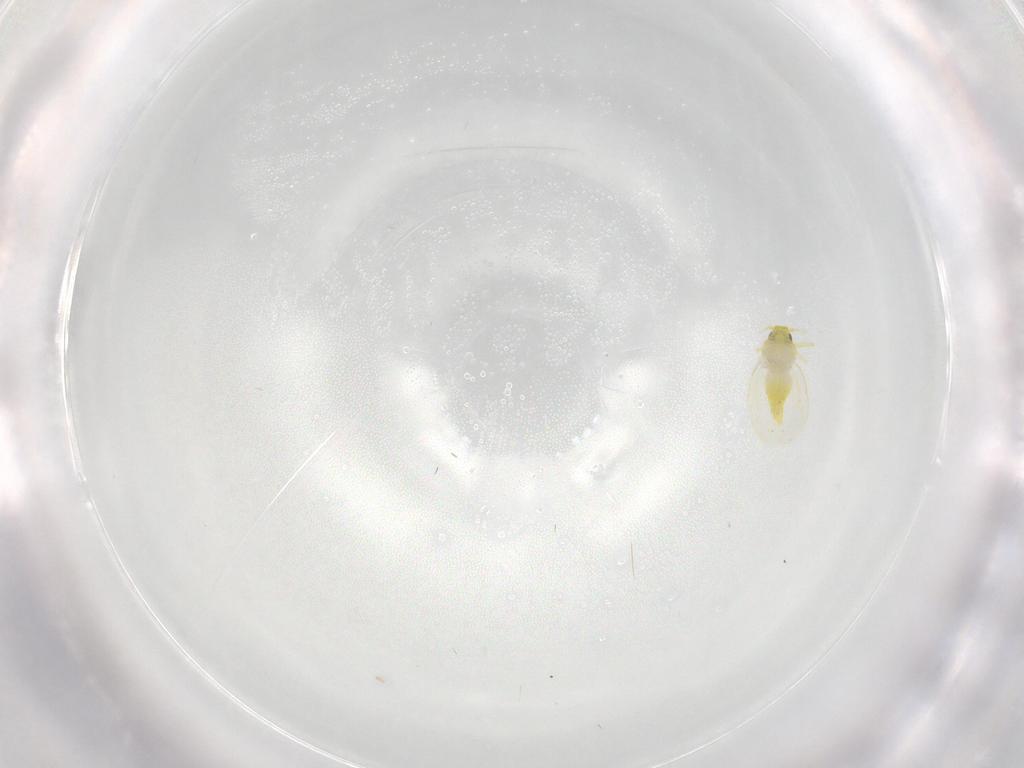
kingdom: Animalia
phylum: Arthropoda
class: Insecta
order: Hemiptera
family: Aleyrodidae
